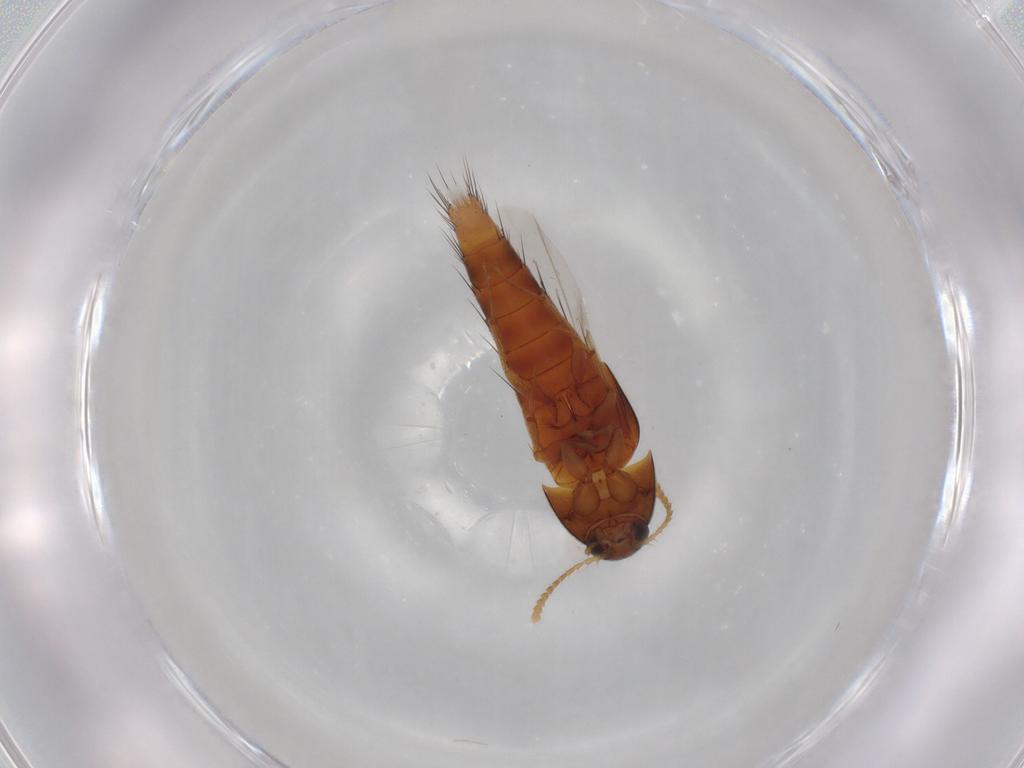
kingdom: Animalia
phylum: Arthropoda
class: Insecta
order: Coleoptera
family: Staphylinidae
